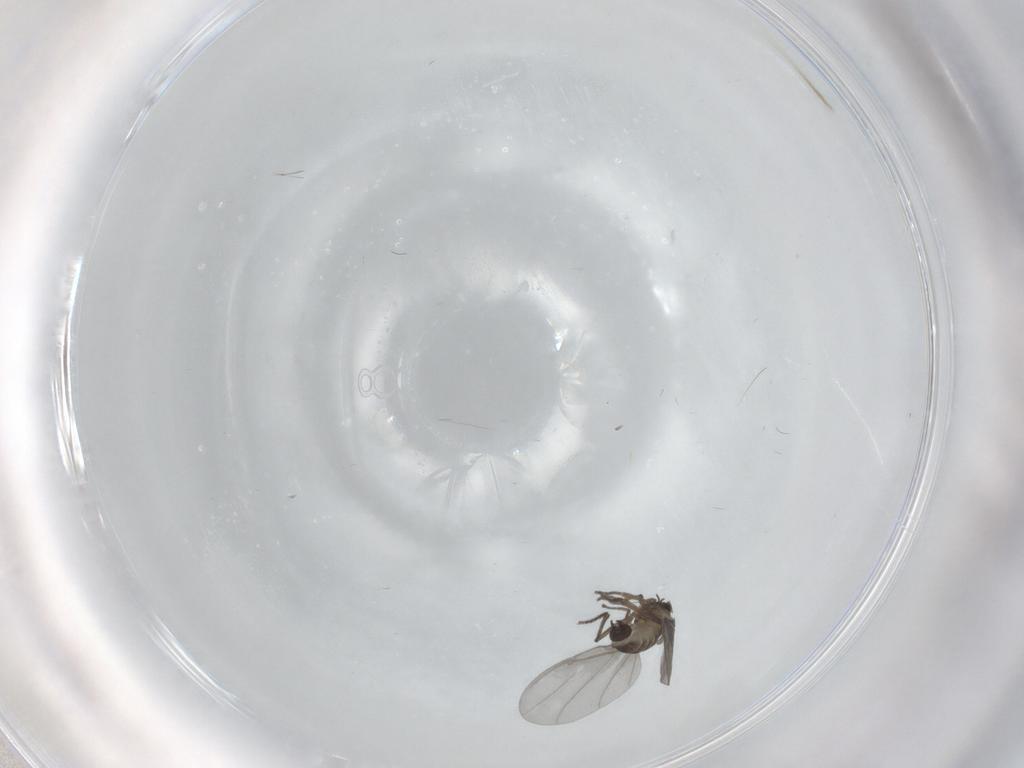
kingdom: Animalia
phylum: Arthropoda
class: Insecta
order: Diptera
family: Phoridae
